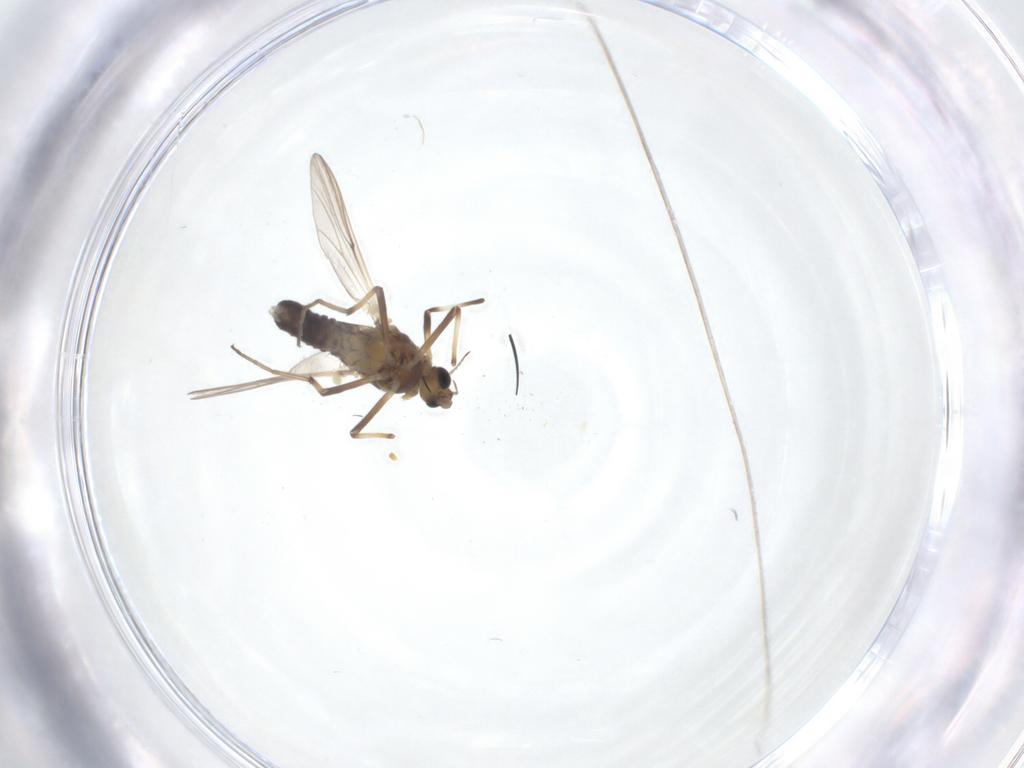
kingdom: Animalia
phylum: Arthropoda
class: Insecta
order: Diptera
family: Chironomidae
